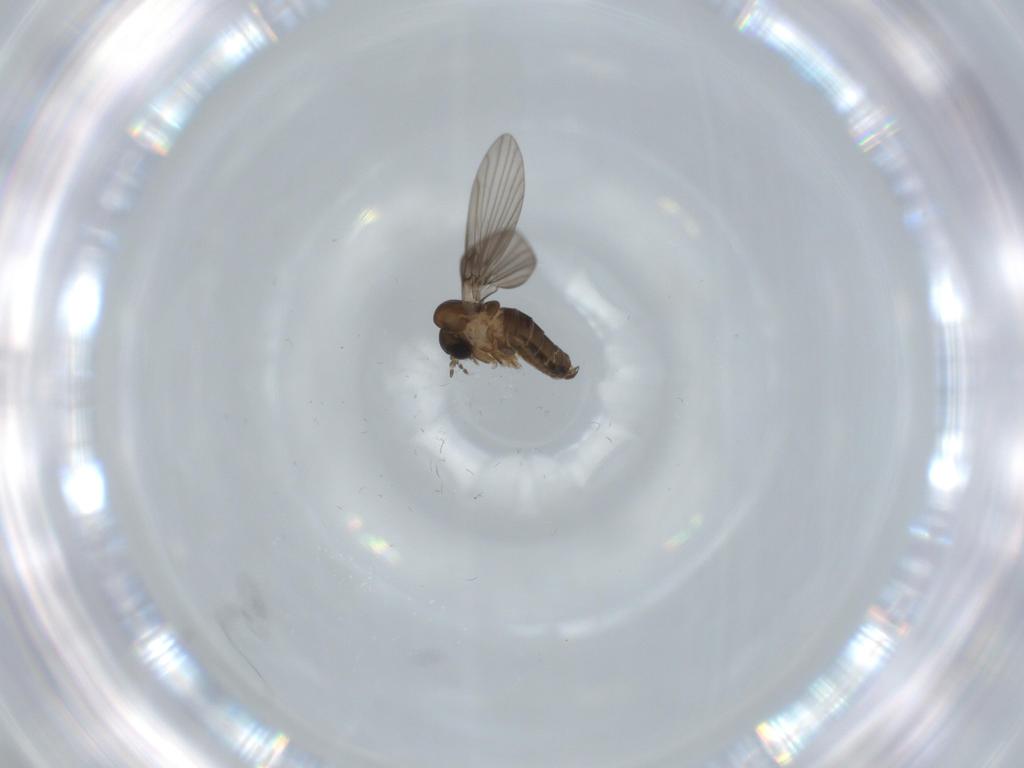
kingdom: Animalia
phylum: Arthropoda
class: Insecta
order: Diptera
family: Psychodidae
